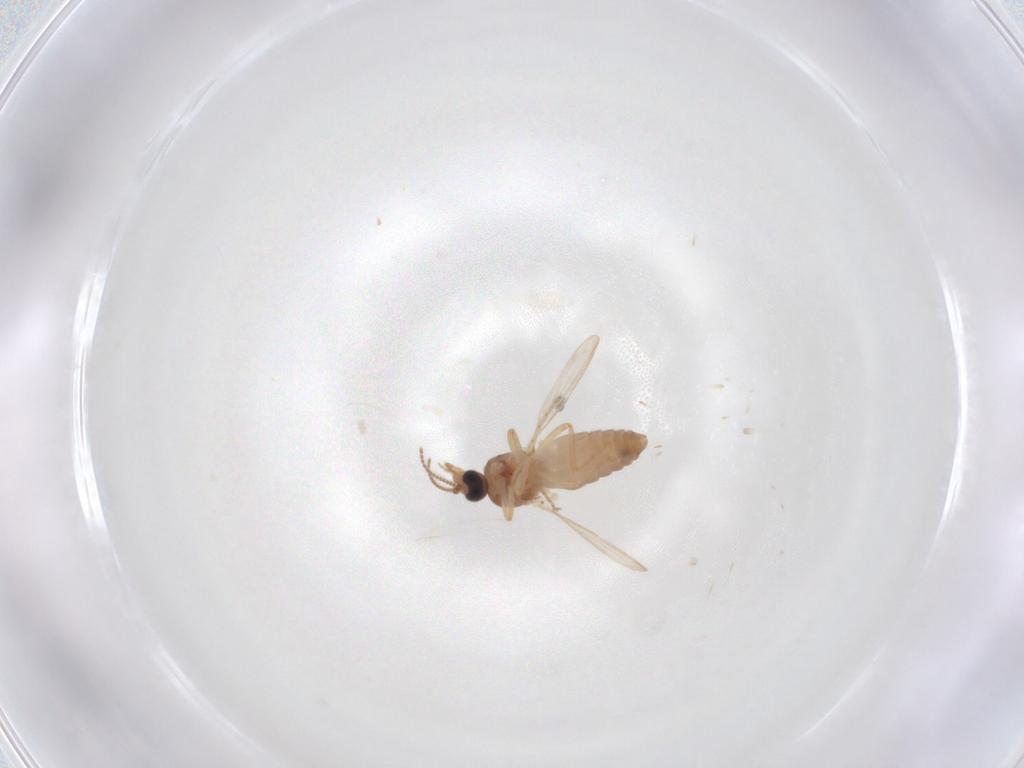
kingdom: Animalia
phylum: Arthropoda
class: Insecta
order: Diptera
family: Ceratopogonidae
